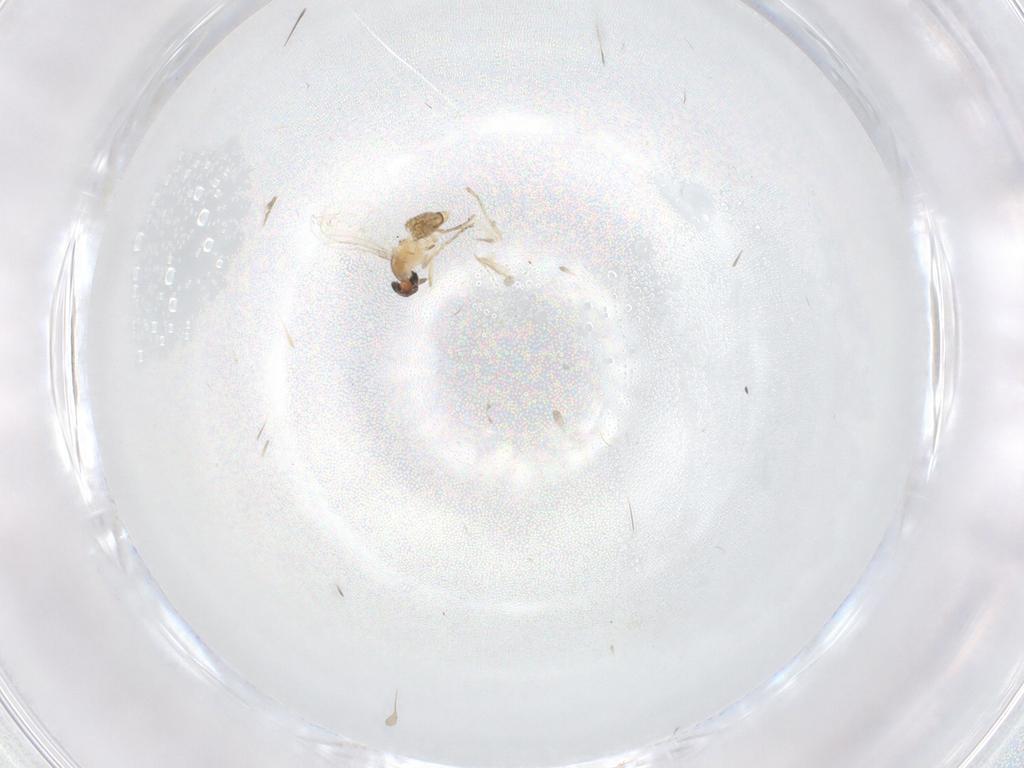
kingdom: Animalia
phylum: Arthropoda
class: Insecta
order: Diptera
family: Cecidomyiidae
